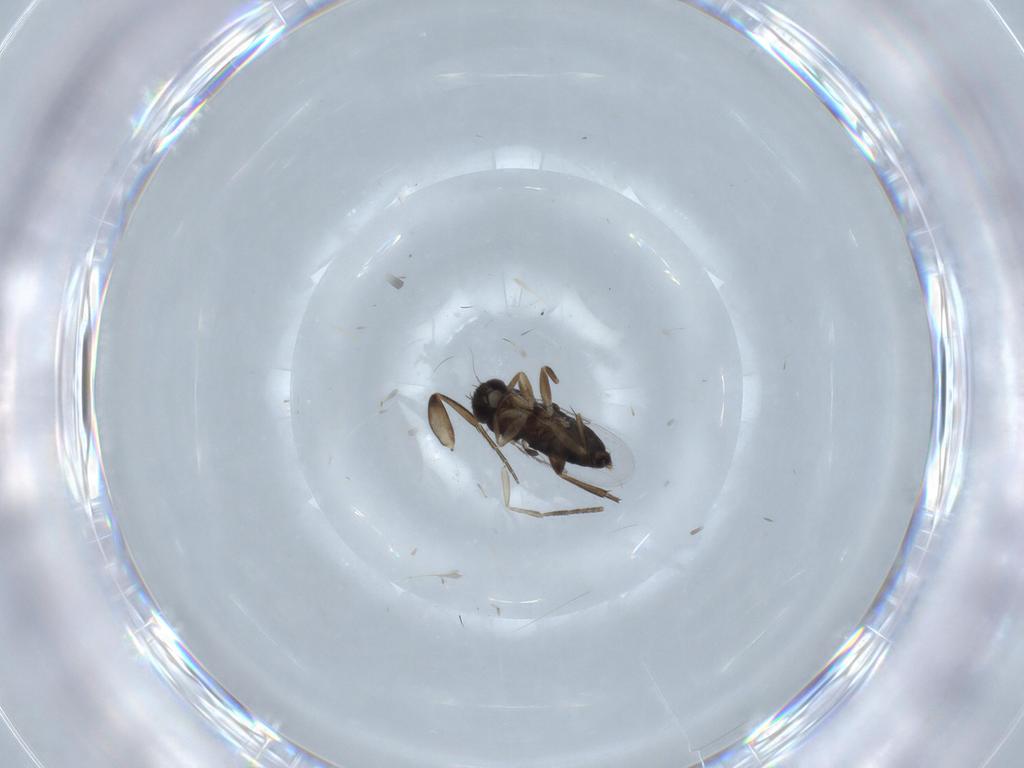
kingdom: Animalia
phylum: Arthropoda
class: Insecta
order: Diptera
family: Phoridae
